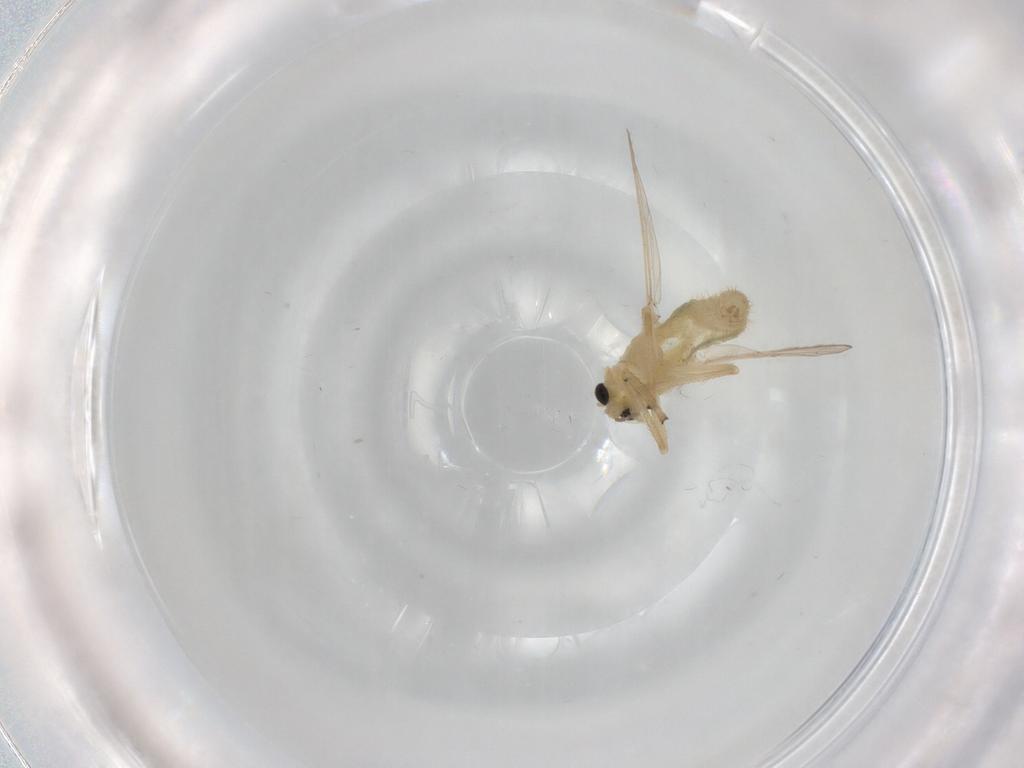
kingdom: Animalia
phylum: Arthropoda
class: Insecta
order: Diptera
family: Chironomidae
